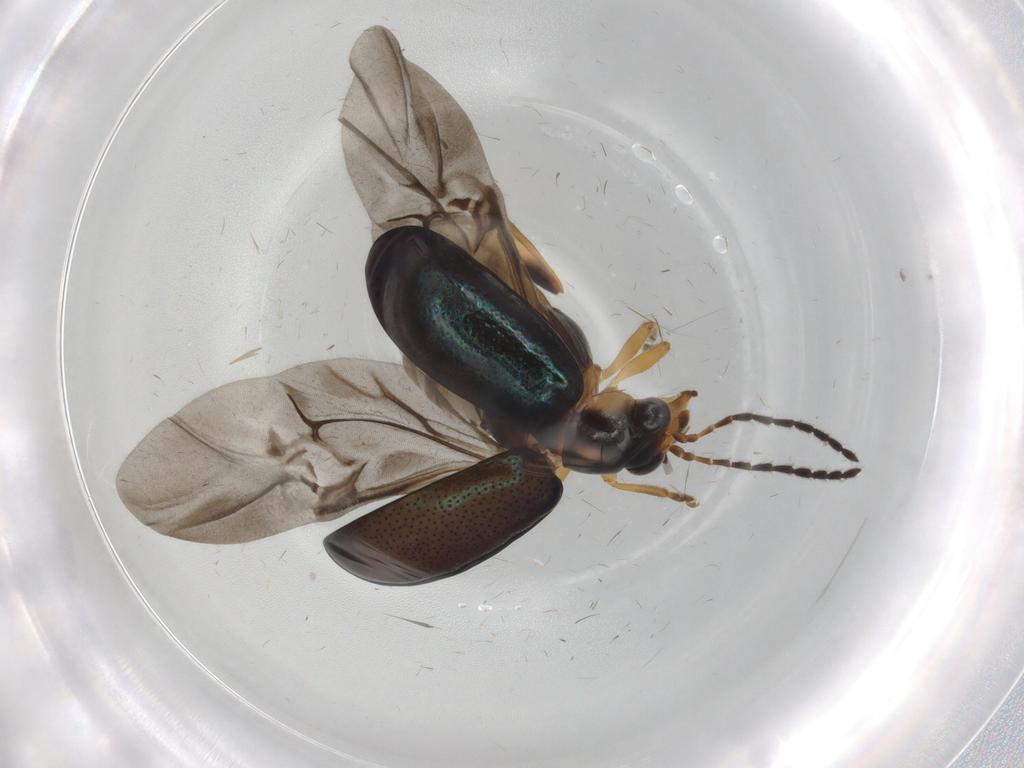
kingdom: Animalia
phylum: Arthropoda
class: Insecta
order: Coleoptera
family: Chrysomelidae
